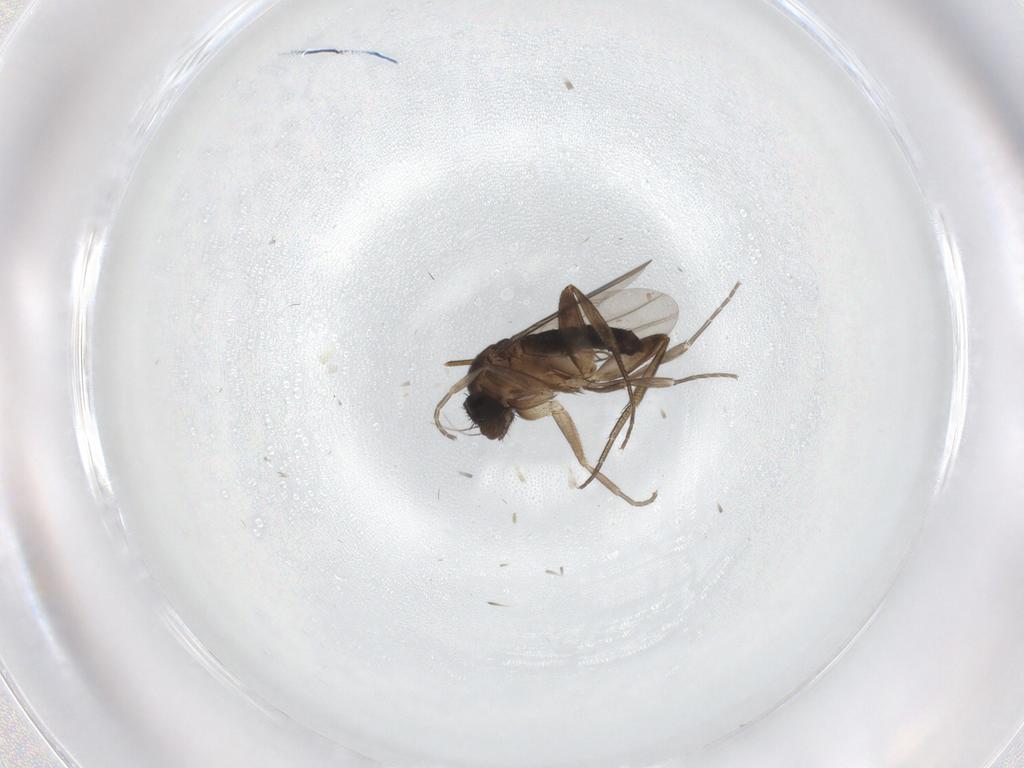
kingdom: Animalia
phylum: Arthropoda
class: Insecta
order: Diptera
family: Phoridae
